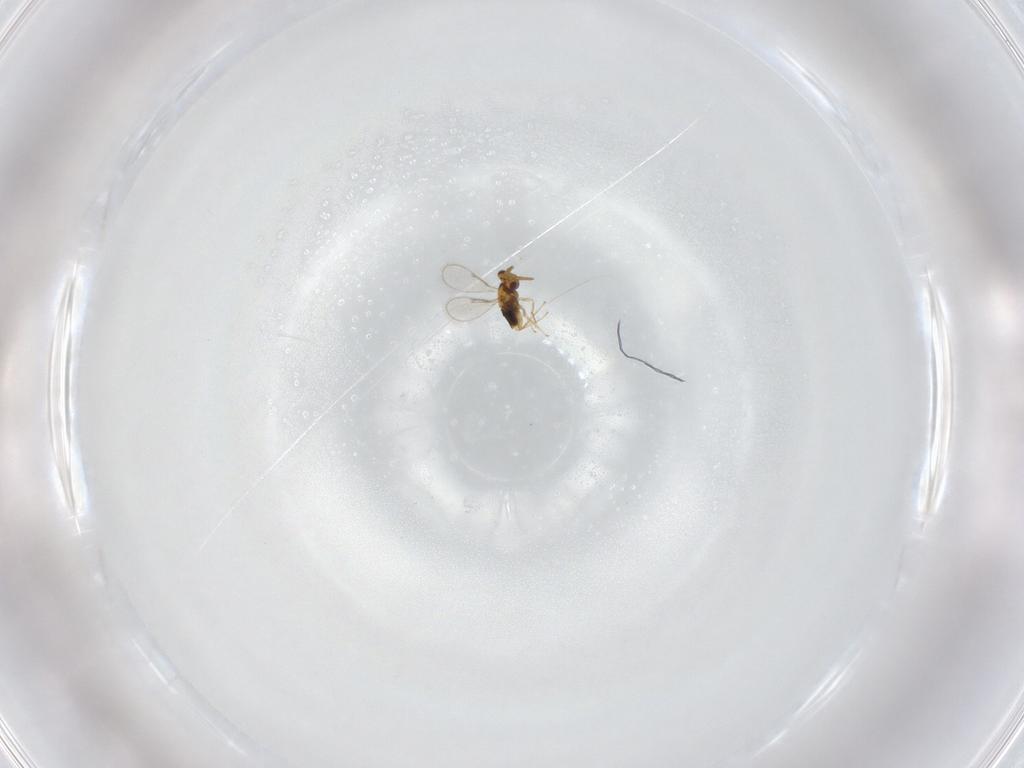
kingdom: Animalia
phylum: Arthropoda
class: Insecta
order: Hymenoptera
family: Aphelinidae
